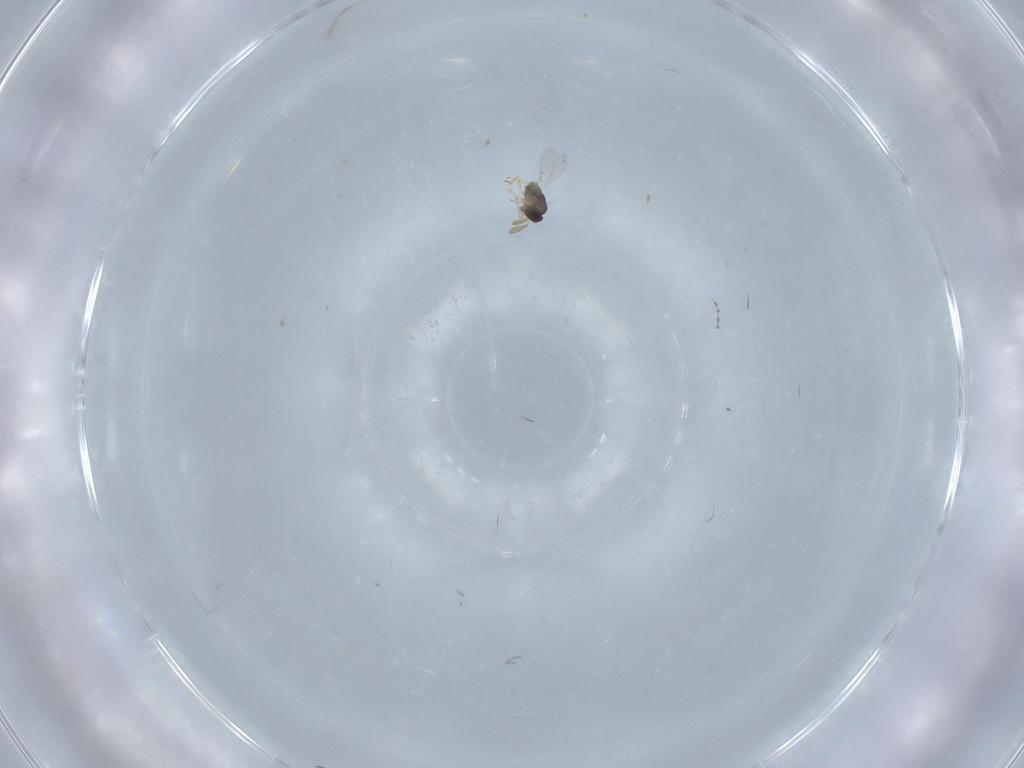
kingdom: Animalia
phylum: Arthropoda
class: Insecta
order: Hymenoptera
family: Encyrtidae
